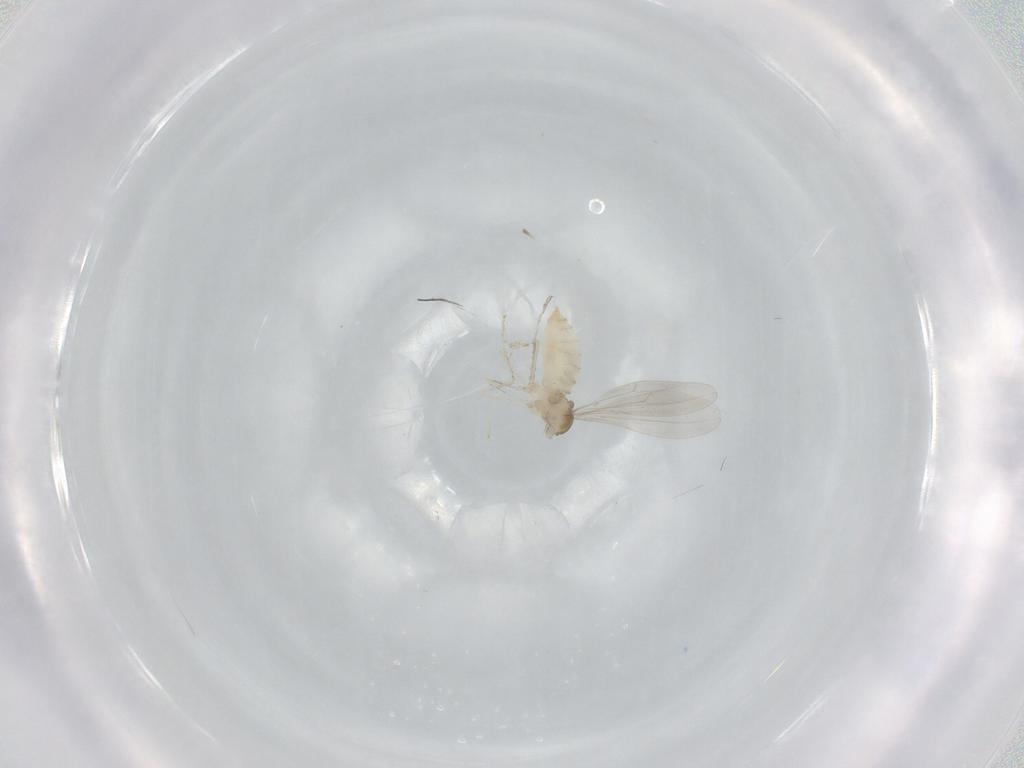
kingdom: Animalia
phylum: Arthropoda
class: Insecta
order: Diptera
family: Cecidomyiidae
